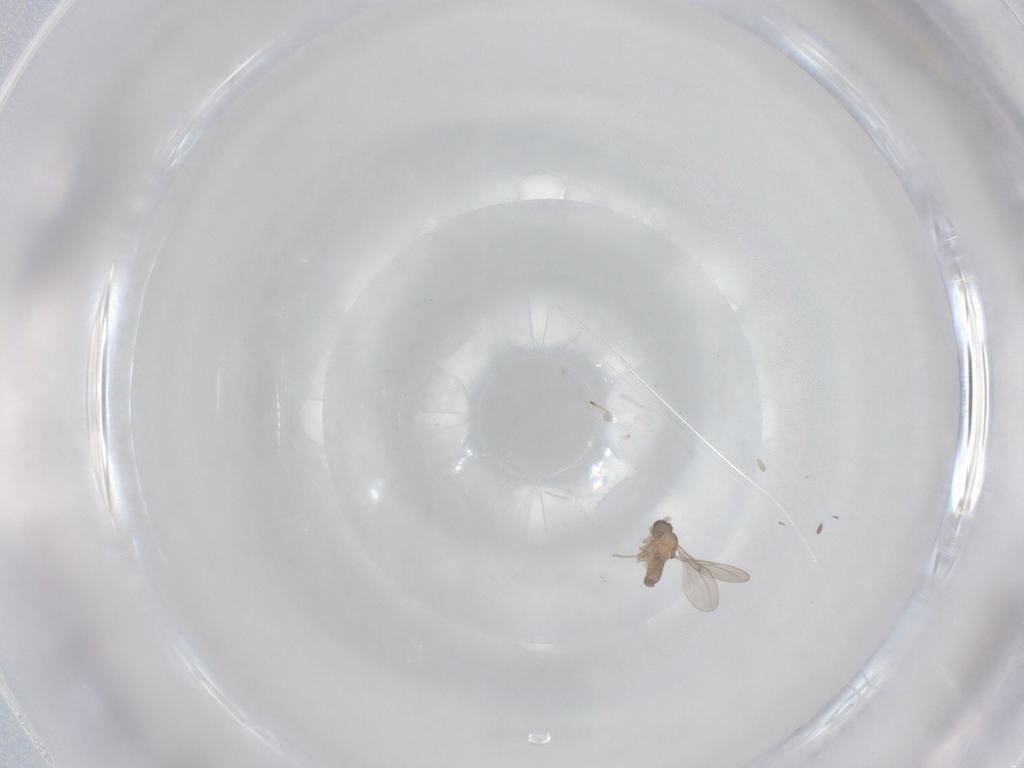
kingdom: Animalia
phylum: Arthropoda
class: Insecta
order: Diptera
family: Cecidomyiidae
